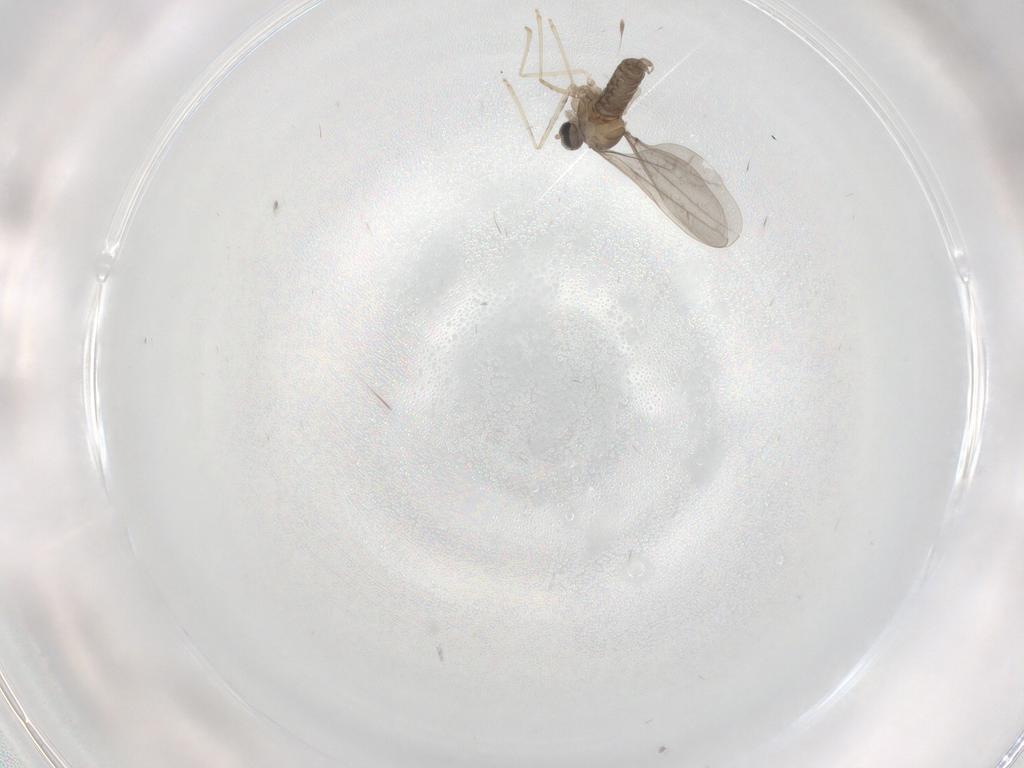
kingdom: Animalia
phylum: Arthropoda
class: Insecta
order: Diptera
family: Cecidomyiidae
